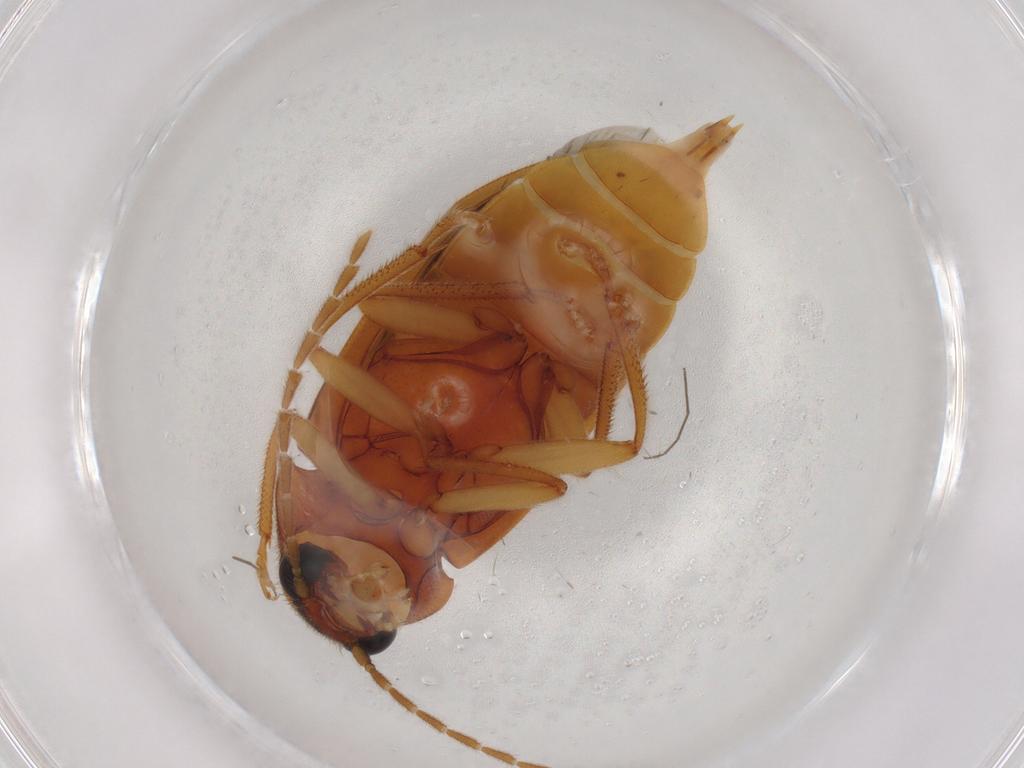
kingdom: Animalia
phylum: Arthropoda
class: Insecta
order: Coleoptera
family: Ptilodactylidae
